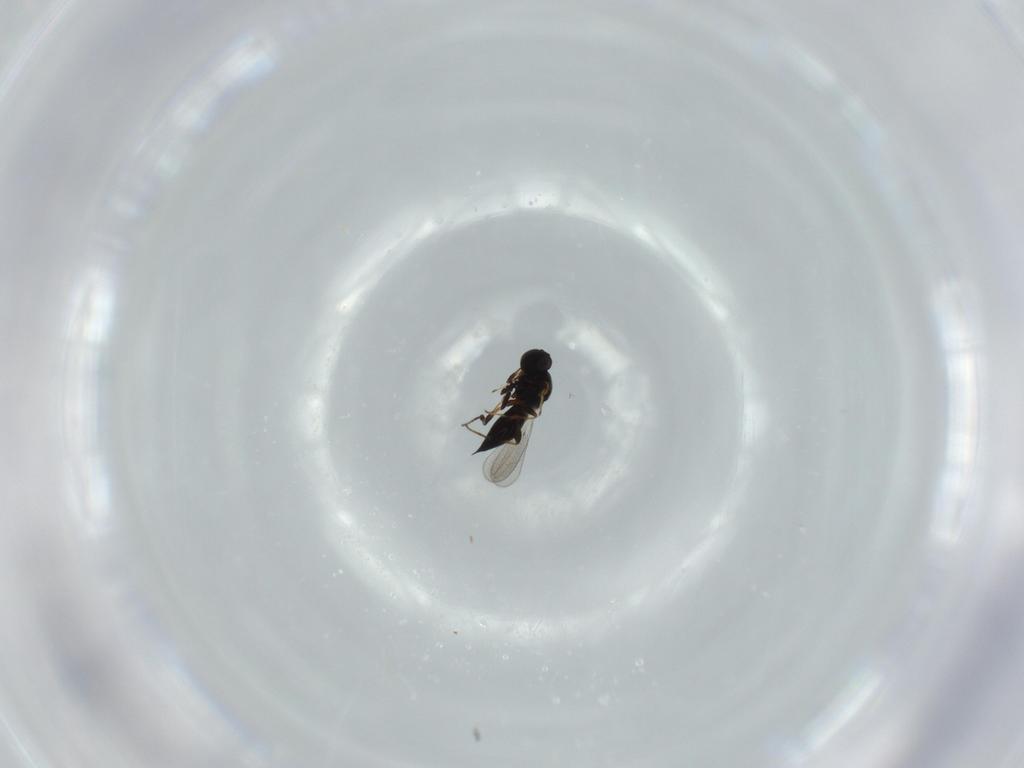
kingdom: Animalia
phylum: Arthropoda
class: Insecta
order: Hymenoptera
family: Platygastridae
